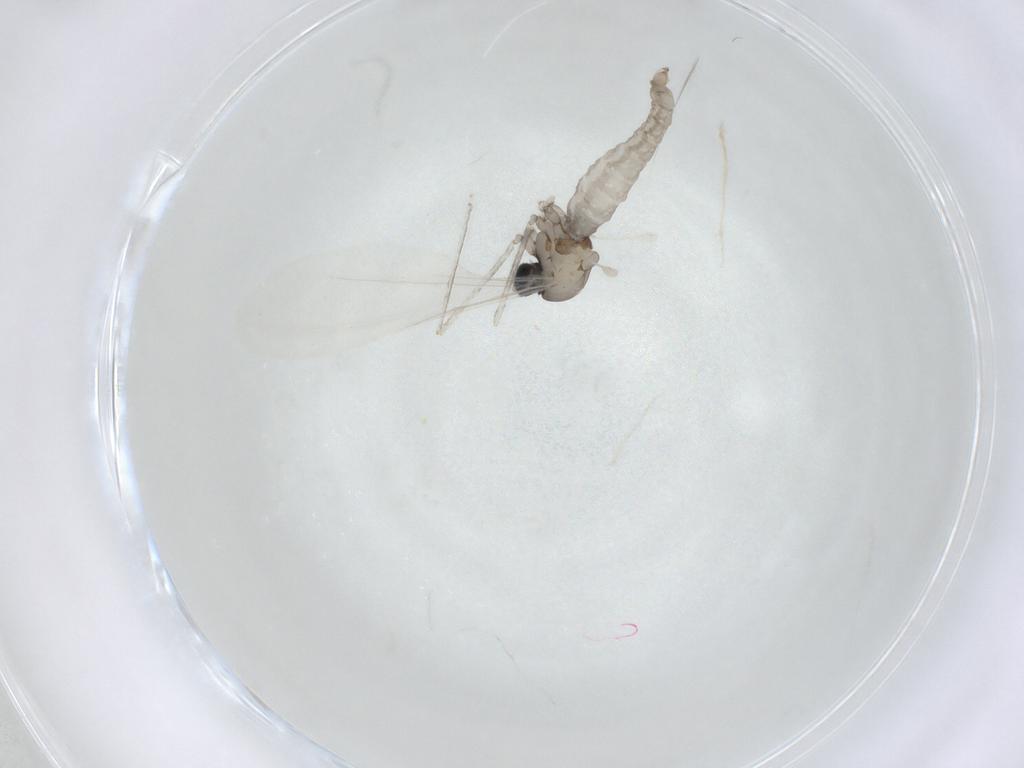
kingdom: Animalia
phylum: Arthropoda
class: Insecta
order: Diptera
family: Cecidomyiidae
